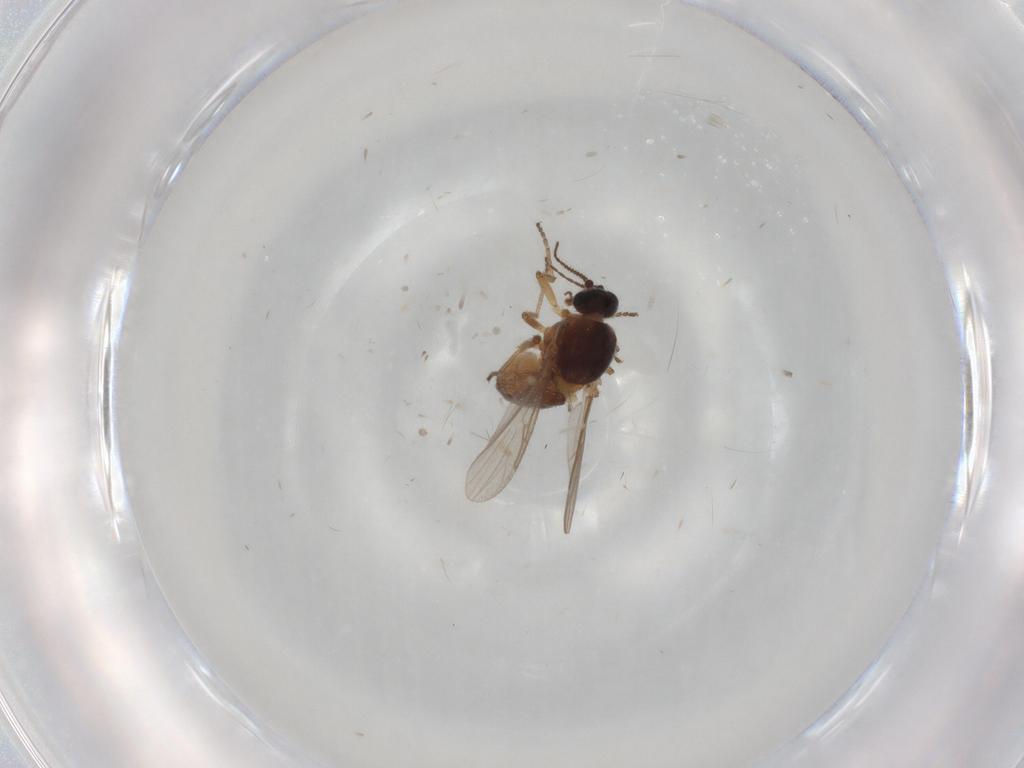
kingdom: Animalia
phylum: Arthropoda
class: Insecta
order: Diptera
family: Ceratopogonidae
